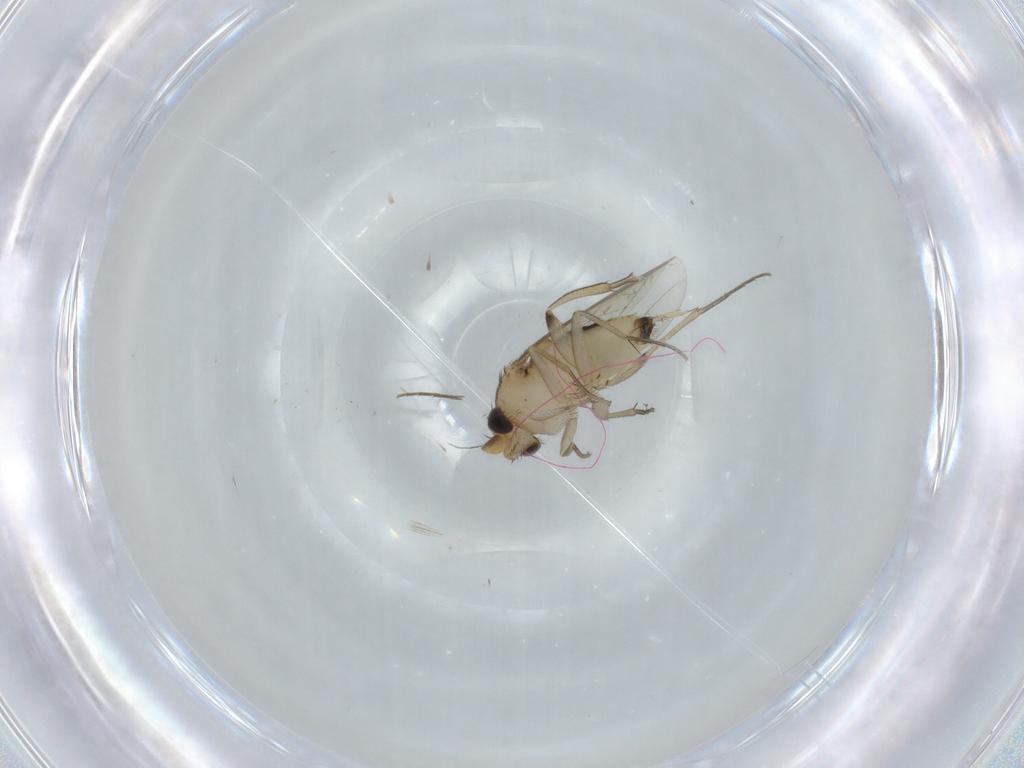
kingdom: Animalia
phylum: Arthropoda
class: Insecta
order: Diptera
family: Phoridae
